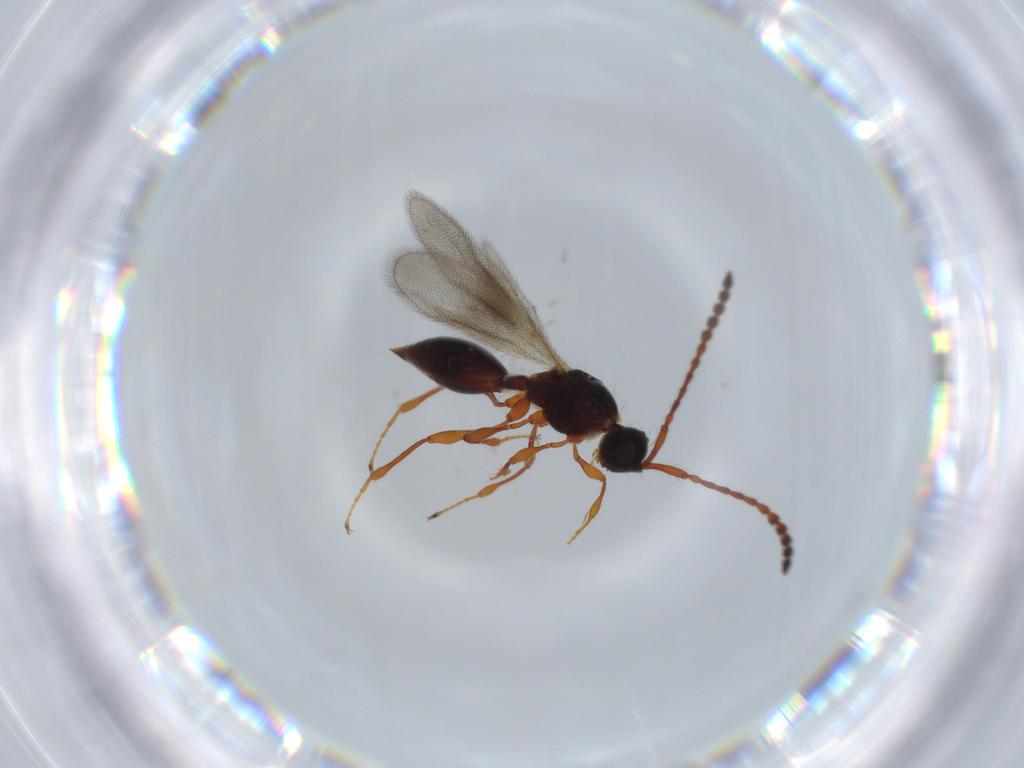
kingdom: Animalia
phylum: Arthropoda
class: Insecta
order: Hymenoptera
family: Diapriidae
